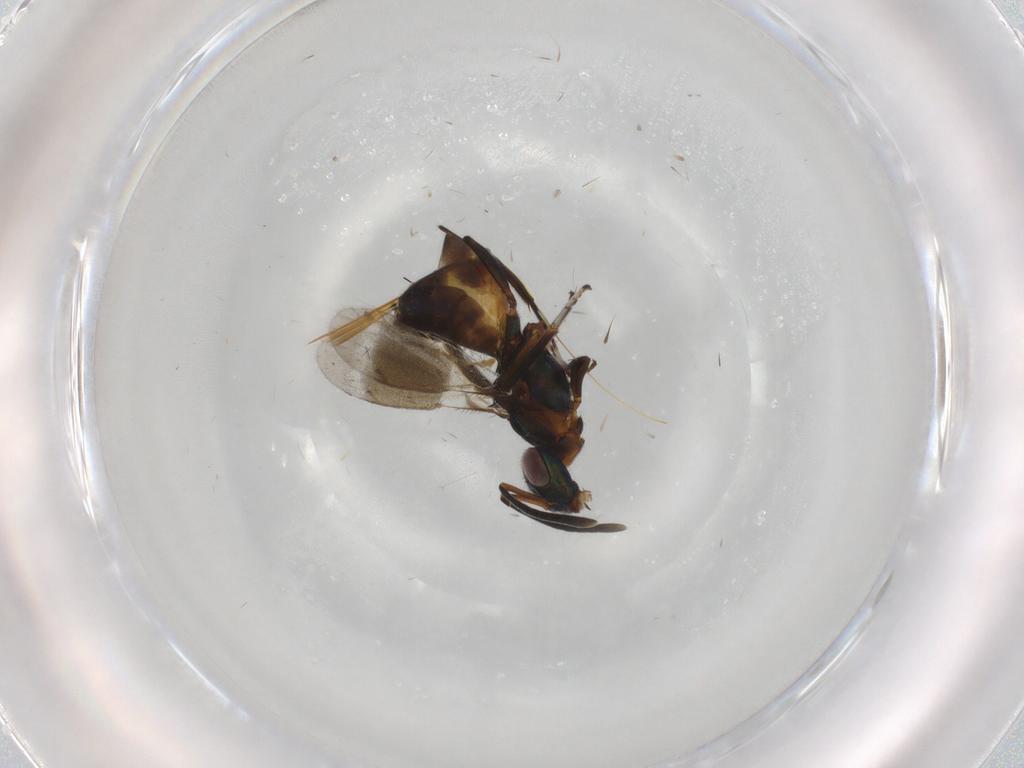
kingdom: Animalia
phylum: Arthropoda
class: Insecta
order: Hymenoptera
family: Eupelmidae
